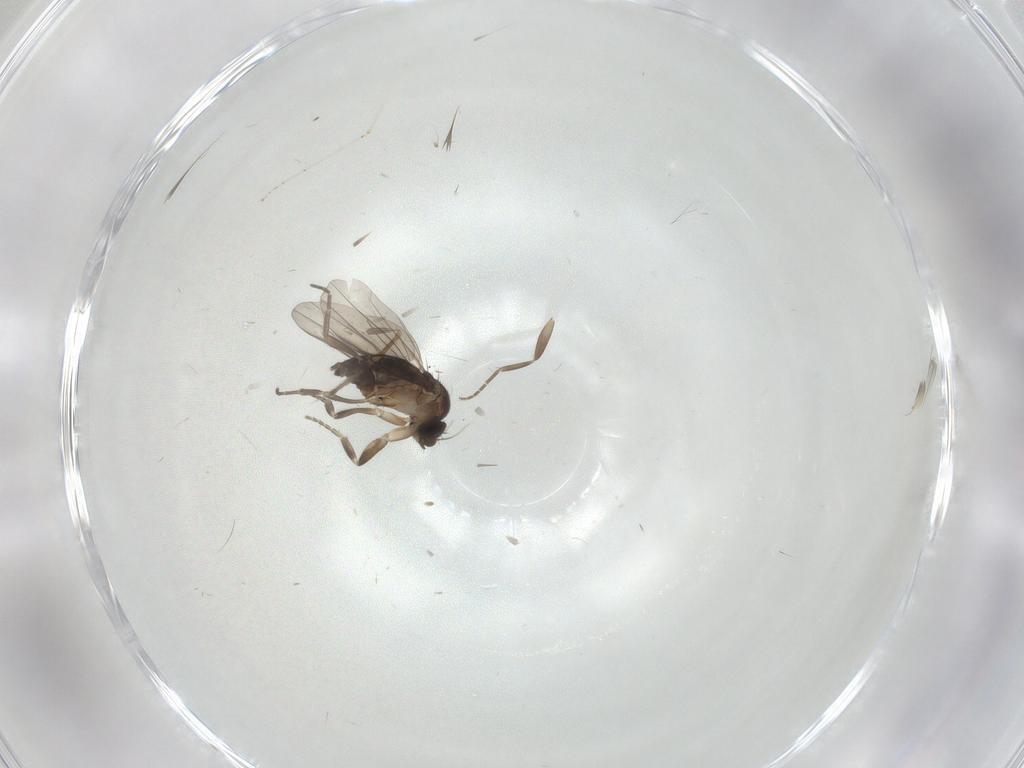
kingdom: Animalia
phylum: Arthropoda
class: Insecta
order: Diptera
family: Chironomidae
